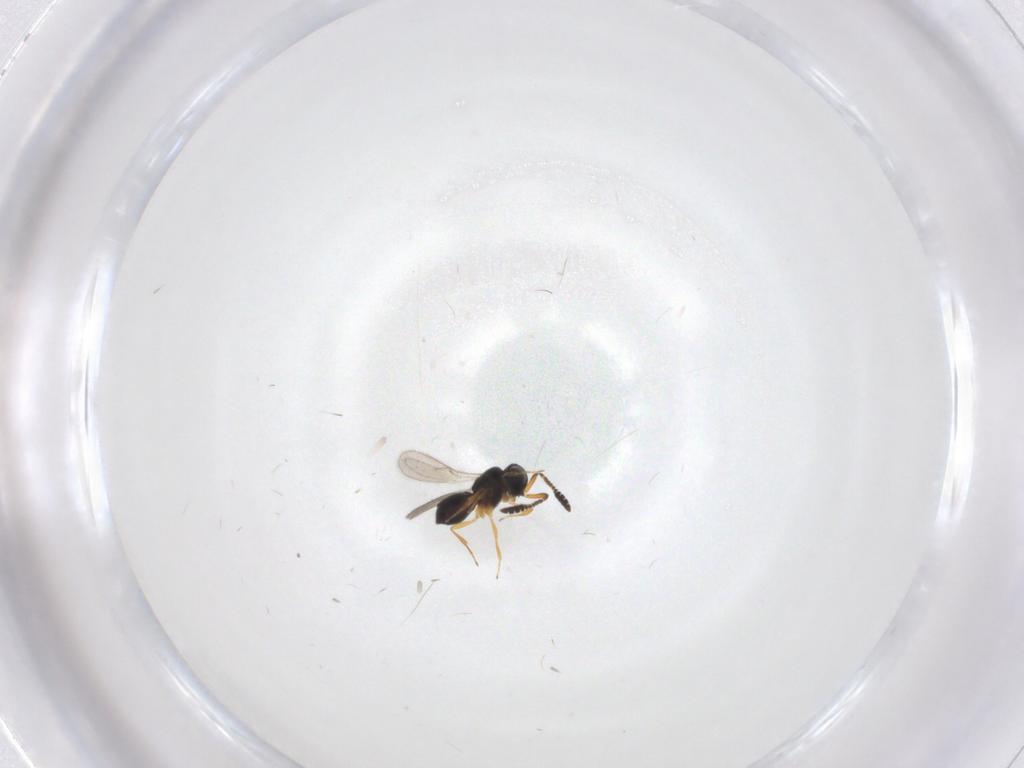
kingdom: Animalia
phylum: Arthropoda
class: Insecta
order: Hymenoptera
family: Scelionidae
